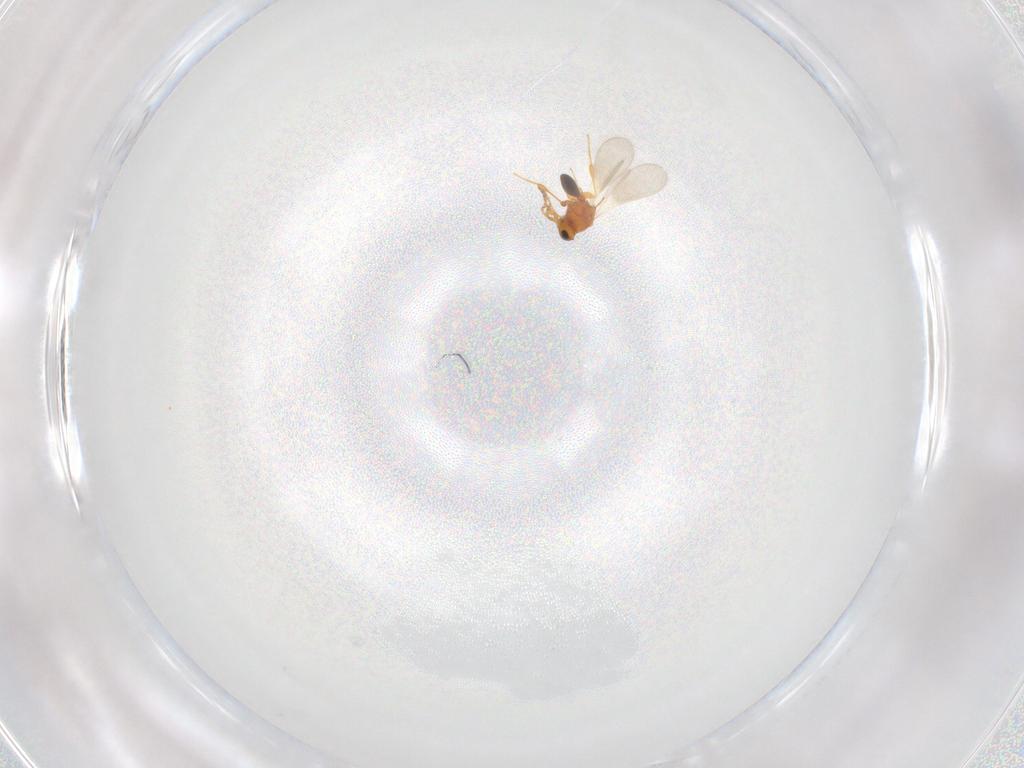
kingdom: Animalia
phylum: Arthropoda
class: Insecta
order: Hymenoptera
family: Platygastridae
